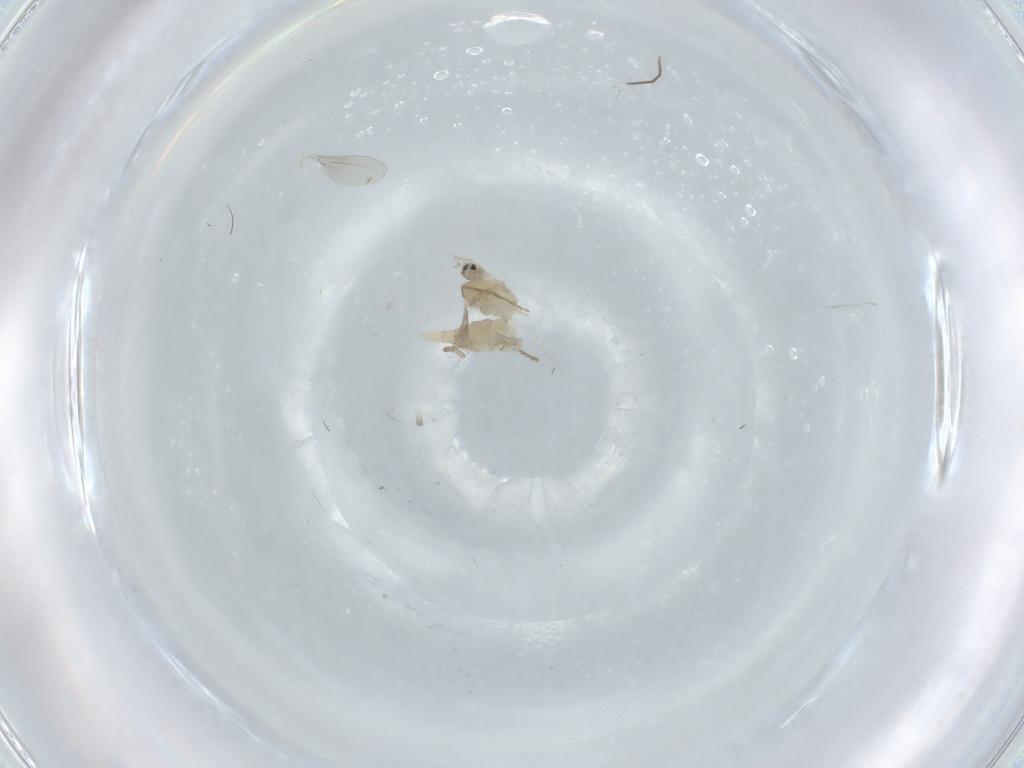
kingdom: Animalia
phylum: Arthropoda
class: Insecta
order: Diptera
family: Cecidomyiidae
